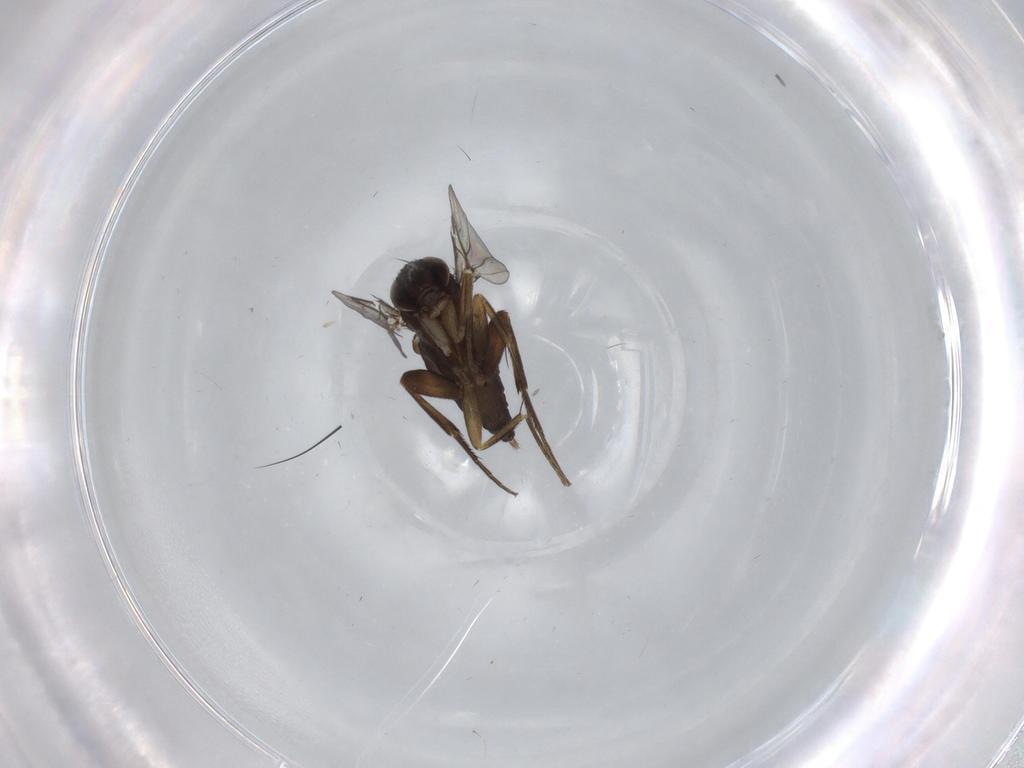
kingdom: Animalia
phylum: Arthropoda
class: Insecta
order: Diptera
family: Phoridae
